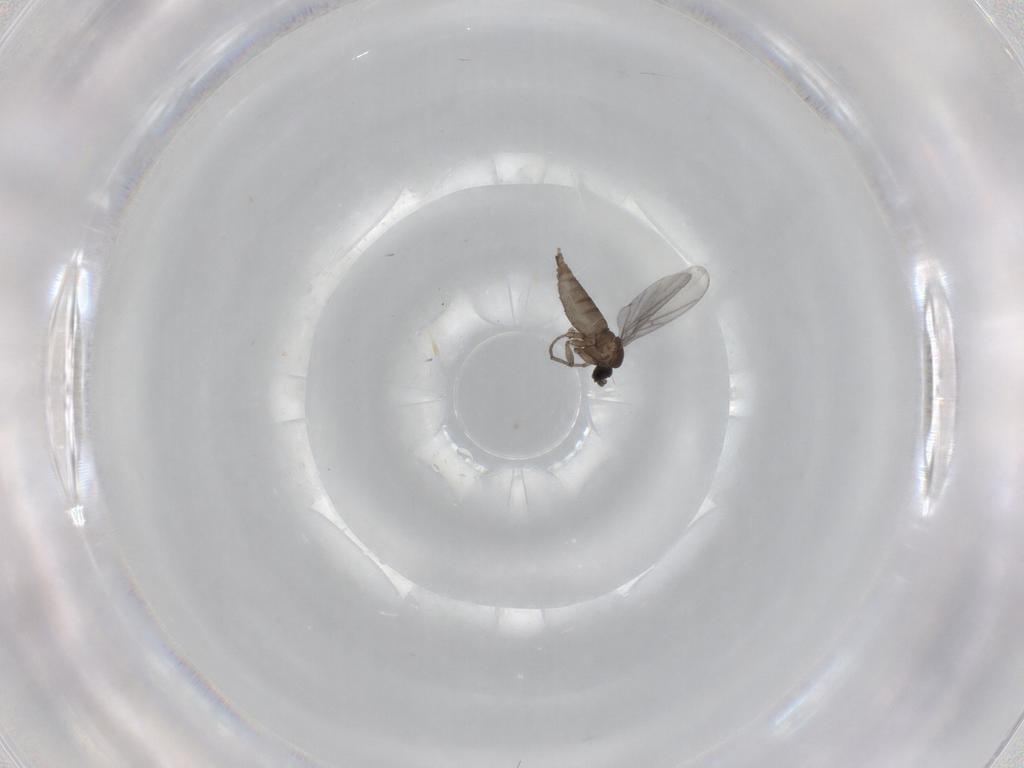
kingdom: Animalia
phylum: Arthropoda
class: Insecta
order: Diptera
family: Sciaridae
